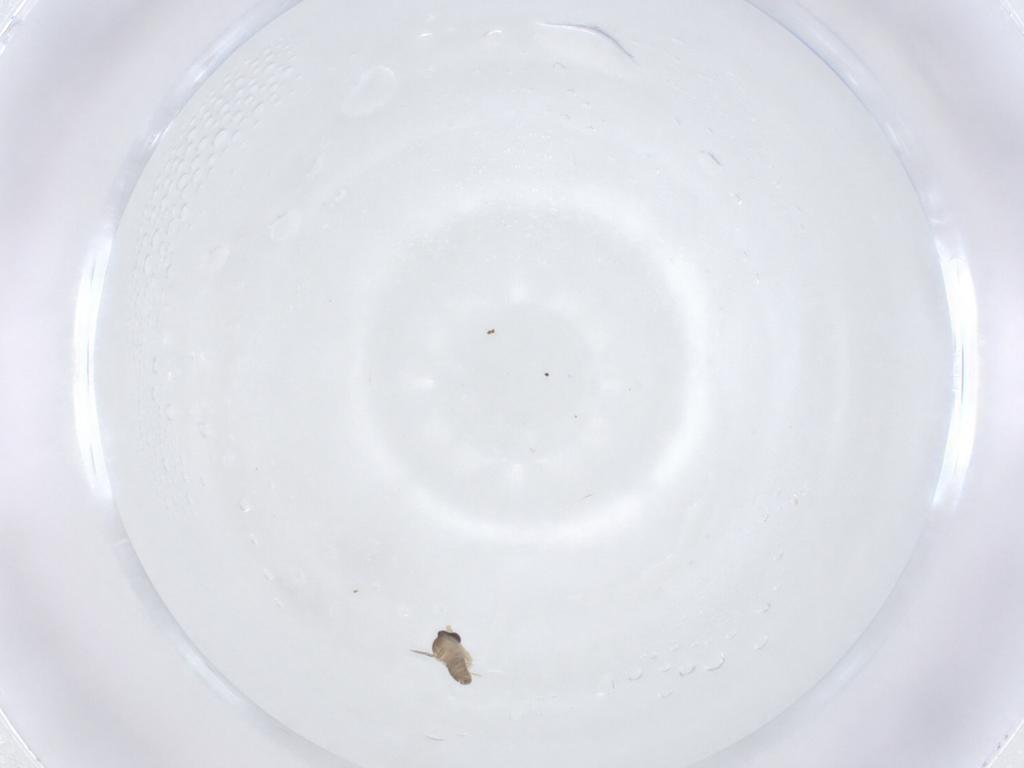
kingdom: Animalia
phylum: Arthropoda
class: Insecta
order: Diptera
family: Cecidomyiidae
